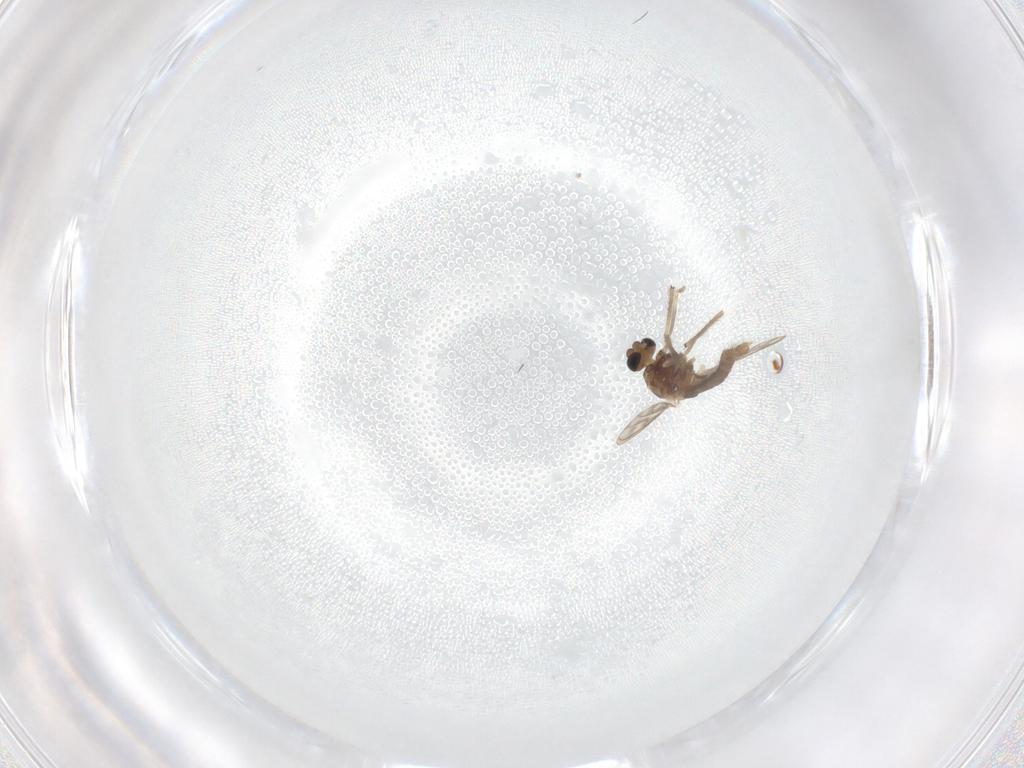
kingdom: Animalia
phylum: Arthropoda
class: Insecta
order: Diptera
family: Chironomidae
